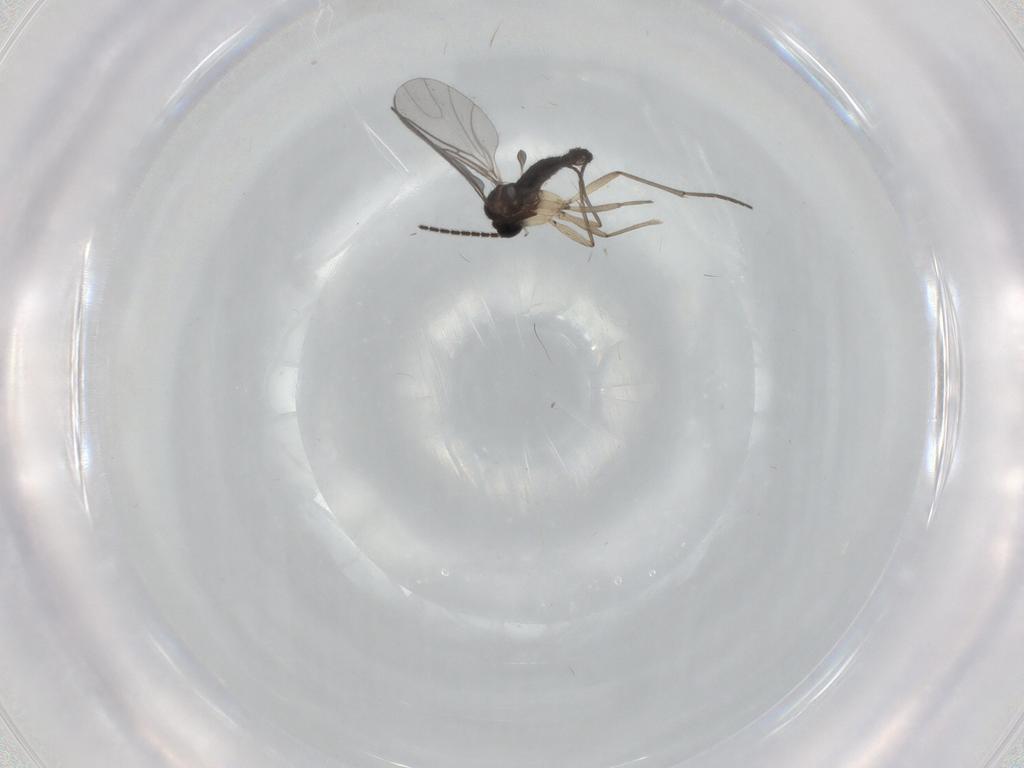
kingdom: Animalia
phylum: Arthropoda
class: Insecta
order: Diptera
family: Sciaridae
